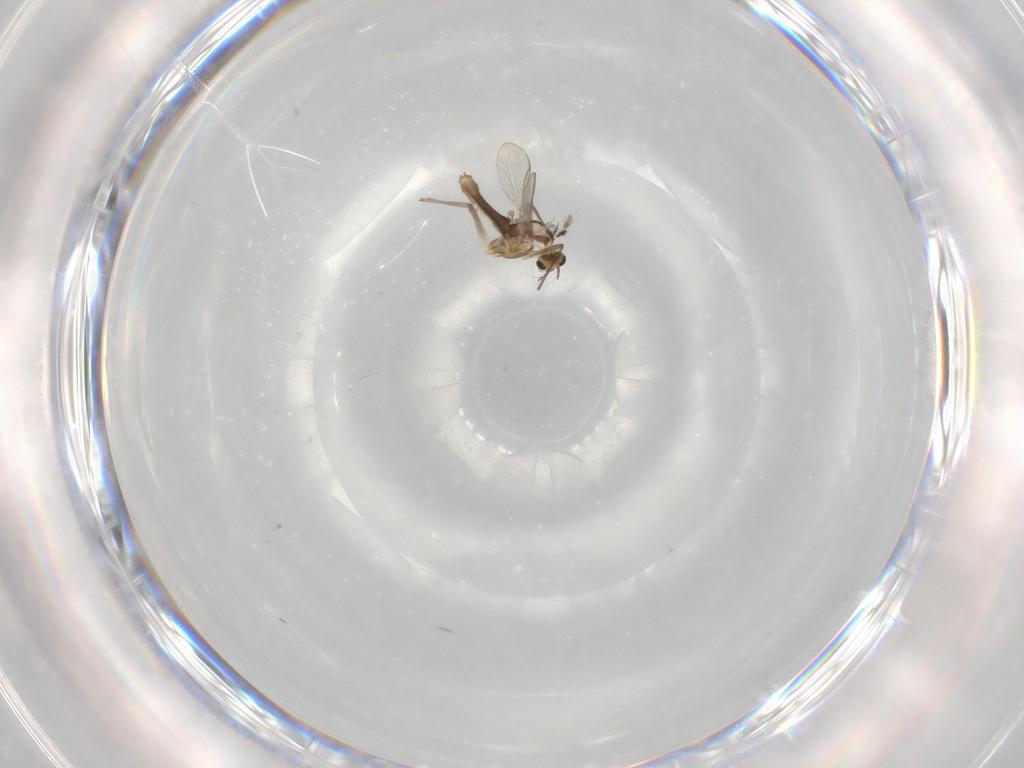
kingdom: Animalia
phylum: Arthropoda
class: Insecta
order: Diptera
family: Chironomidae
